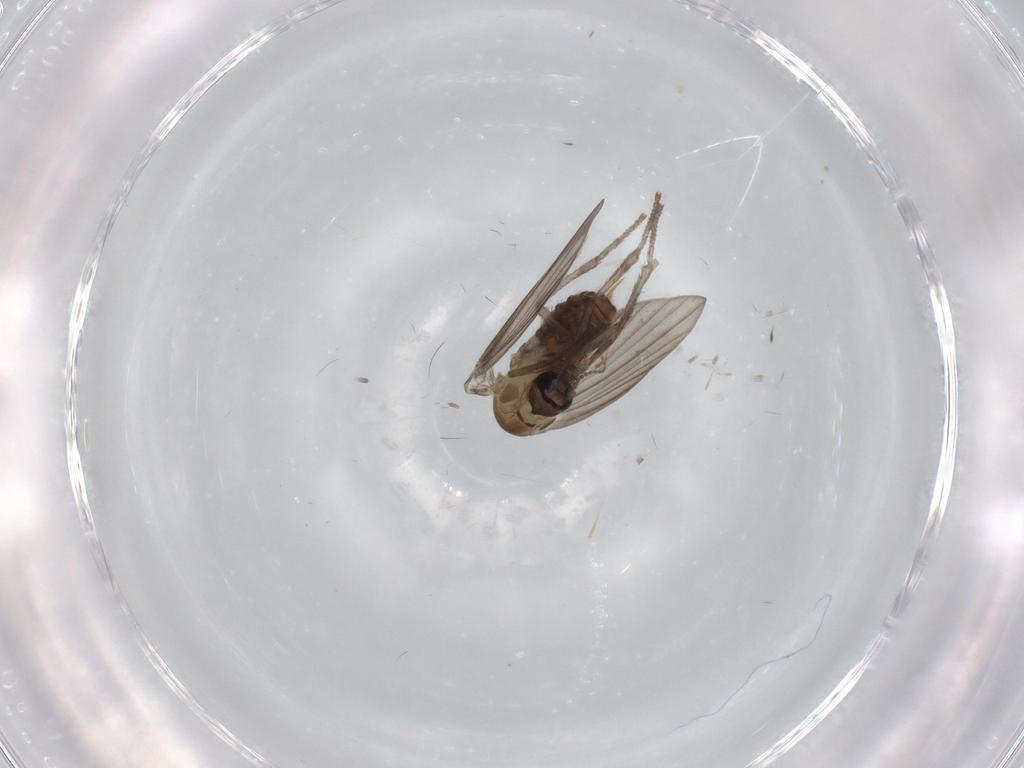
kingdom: Animalia
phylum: Arthropoda
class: Insecta
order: Diptera
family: Psychodidae
